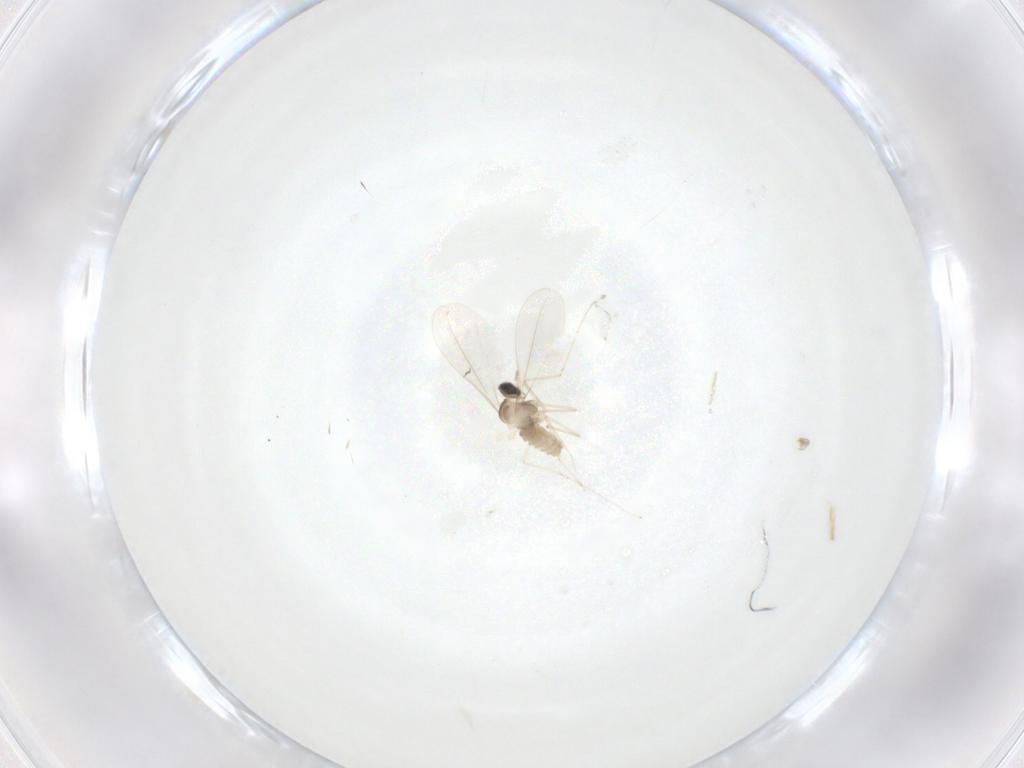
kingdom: Animalia
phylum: Arthropoda
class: Insecta
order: Diptera
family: Cecidomyiidae
